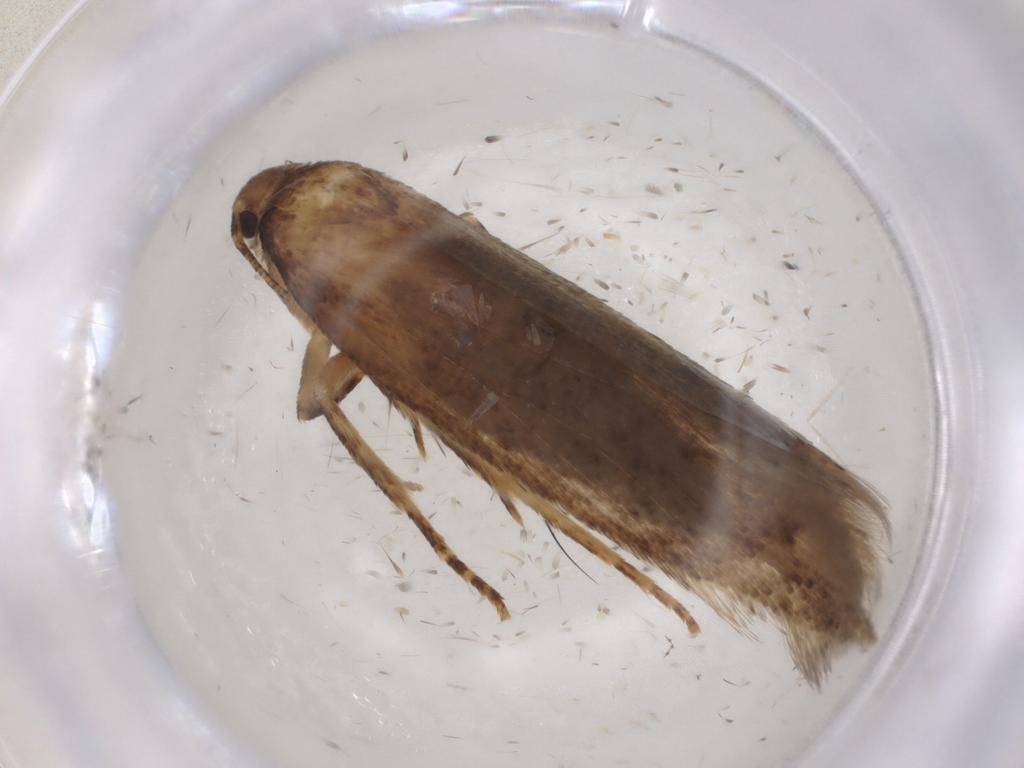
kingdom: Animalia
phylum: Arthropoda
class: Insecta
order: Lepidoptera
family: Gelechiidae
